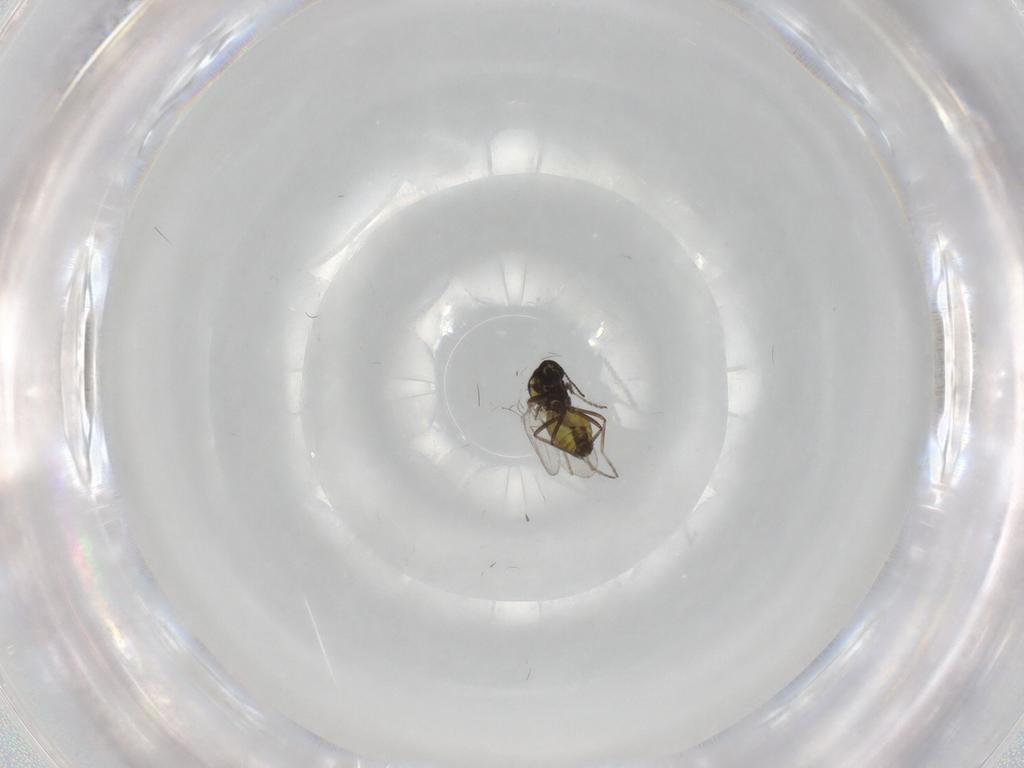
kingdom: Animalia
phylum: Arthropoda
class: Insecta
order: Diptera
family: Ceratopogonidae
